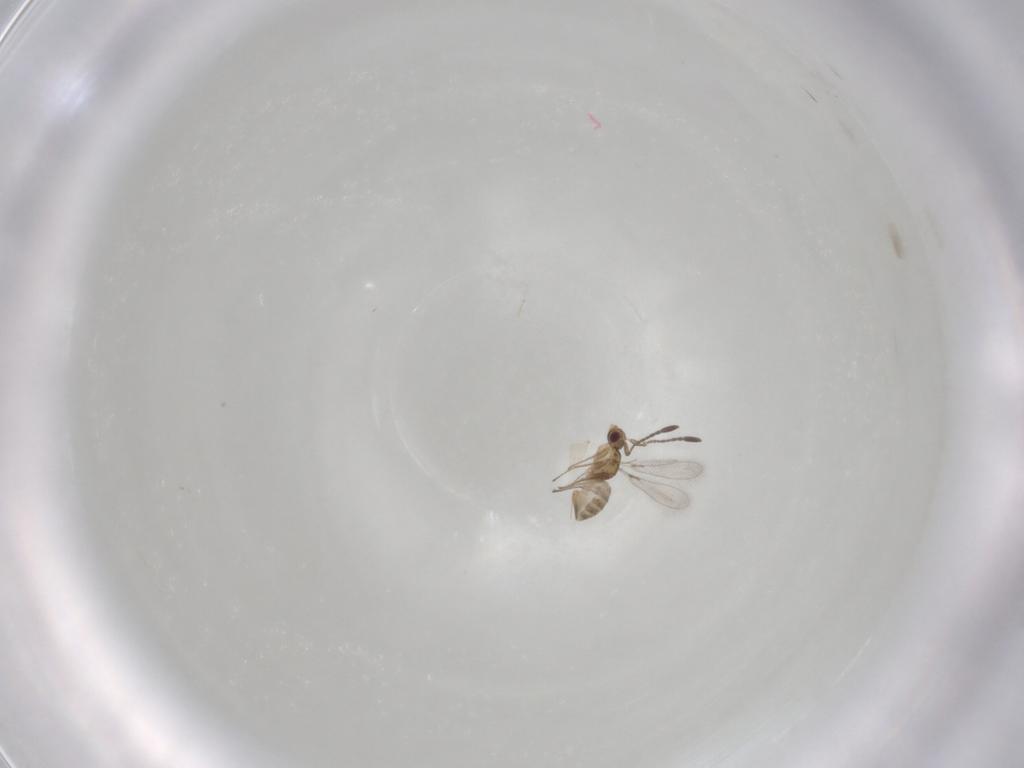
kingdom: Animalia
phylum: Arthropoda
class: Insecta
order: Hymenoptera
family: Mymaridae
